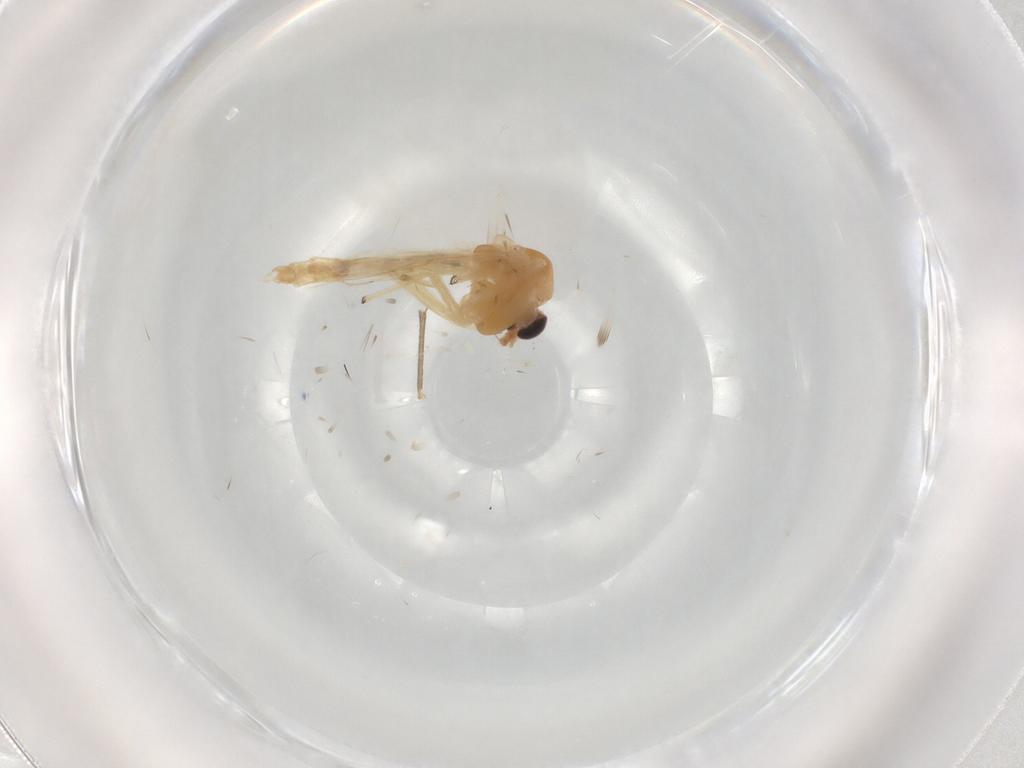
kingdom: Animalia
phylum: Arthropoda
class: Insecta
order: Diptera
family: Chironomidae
